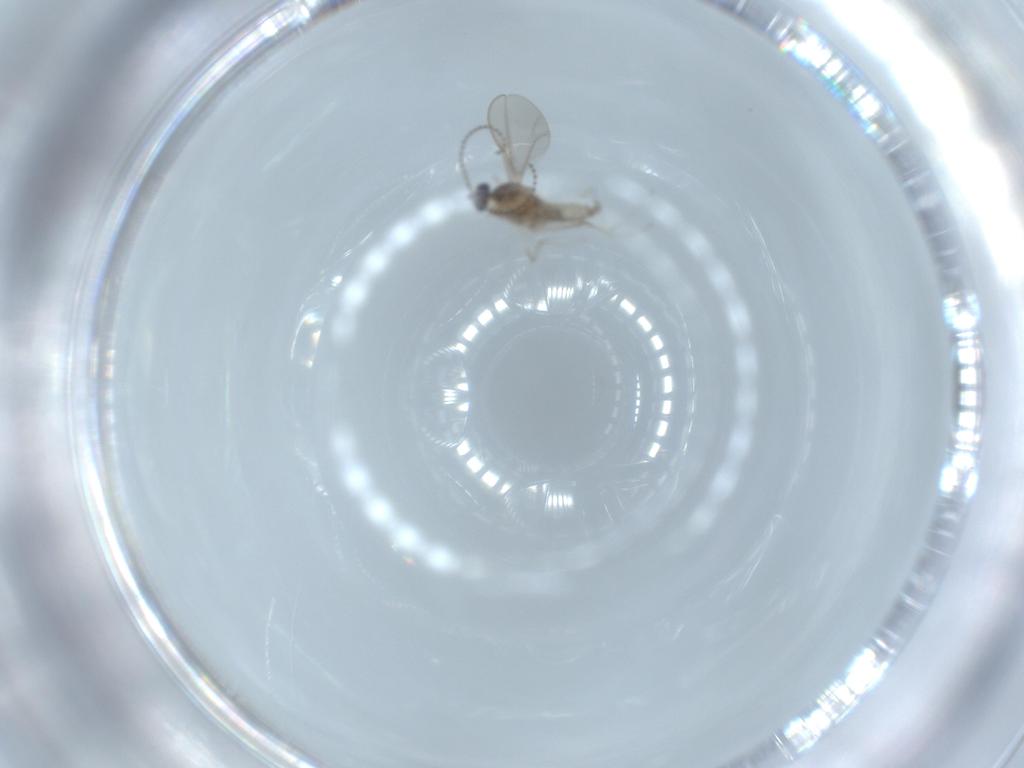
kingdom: Animalia
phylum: Arthropoda
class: Insecta
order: Diptera
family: Cecidomyiidae
